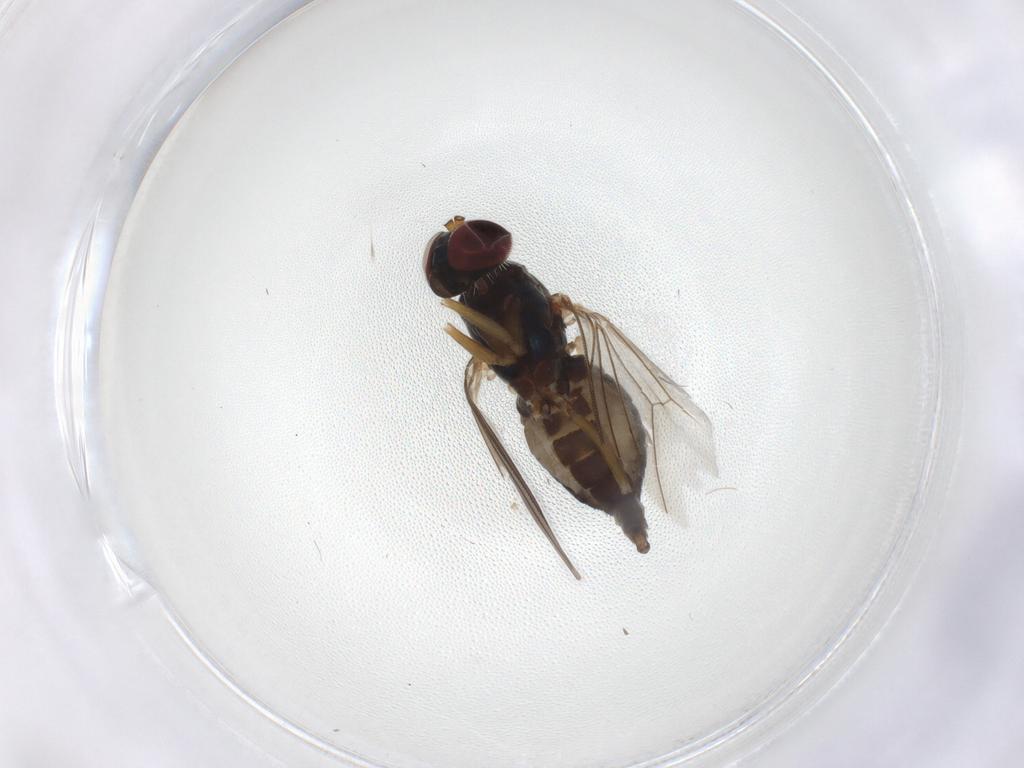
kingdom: Animalia
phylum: Arthropoda
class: Insecta
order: Diptera
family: Dolichopodidae
